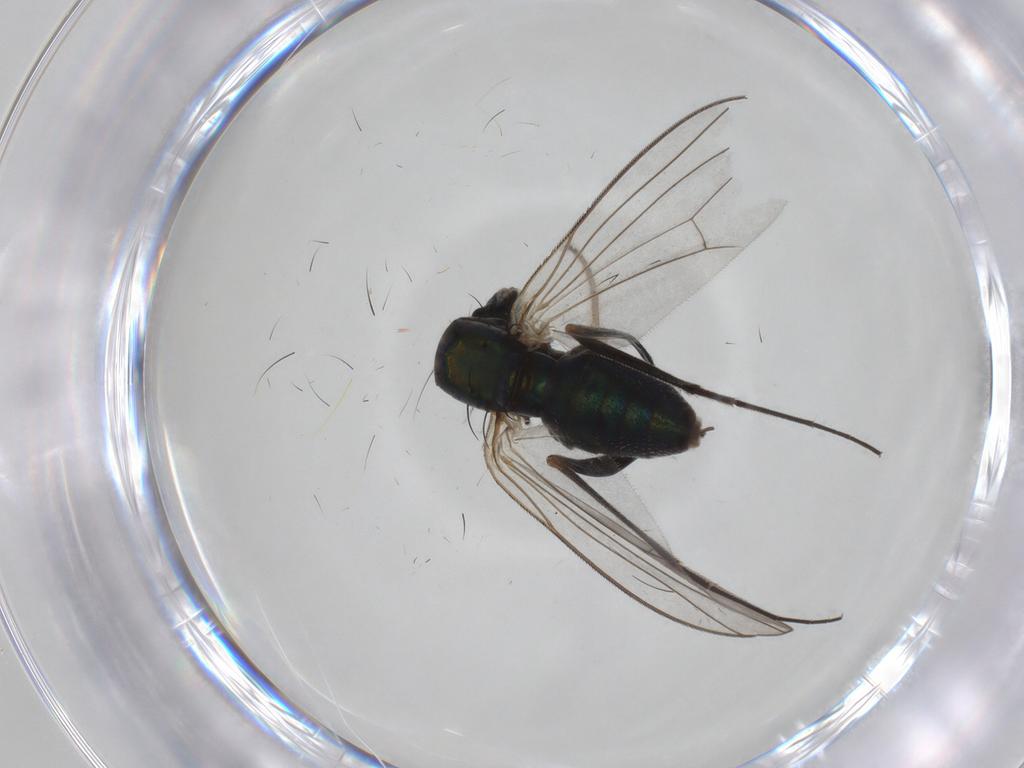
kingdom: Animalia
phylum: Arthropoda
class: Insecta
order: Diptera
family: Dolichopodidae
